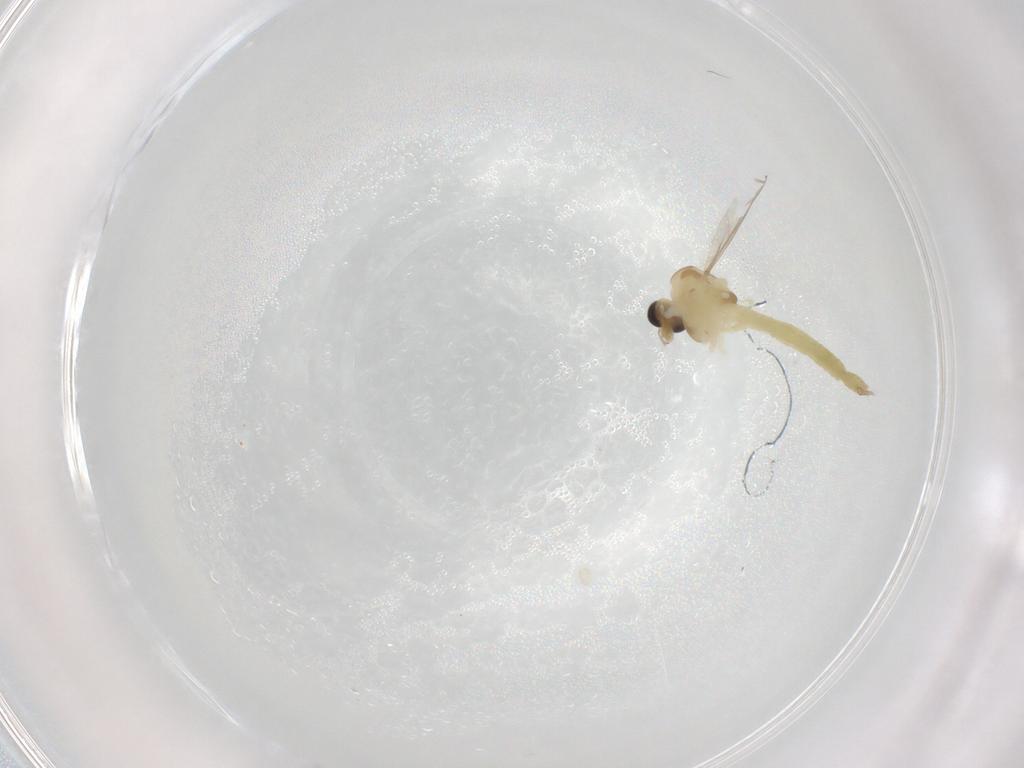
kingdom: Animalia
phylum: Arthropoda
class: Insecta
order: Diptera
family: Chironomidae
